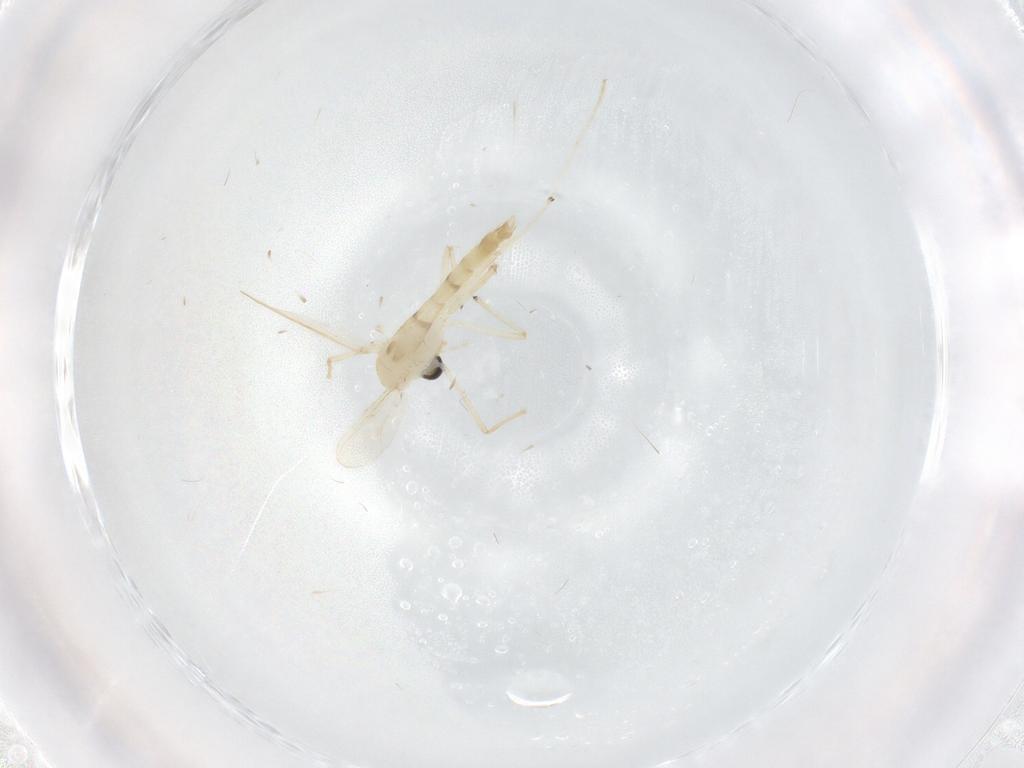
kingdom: Animalia
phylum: Arthropoda
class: Insecta
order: Diptera
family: Chironomidae
